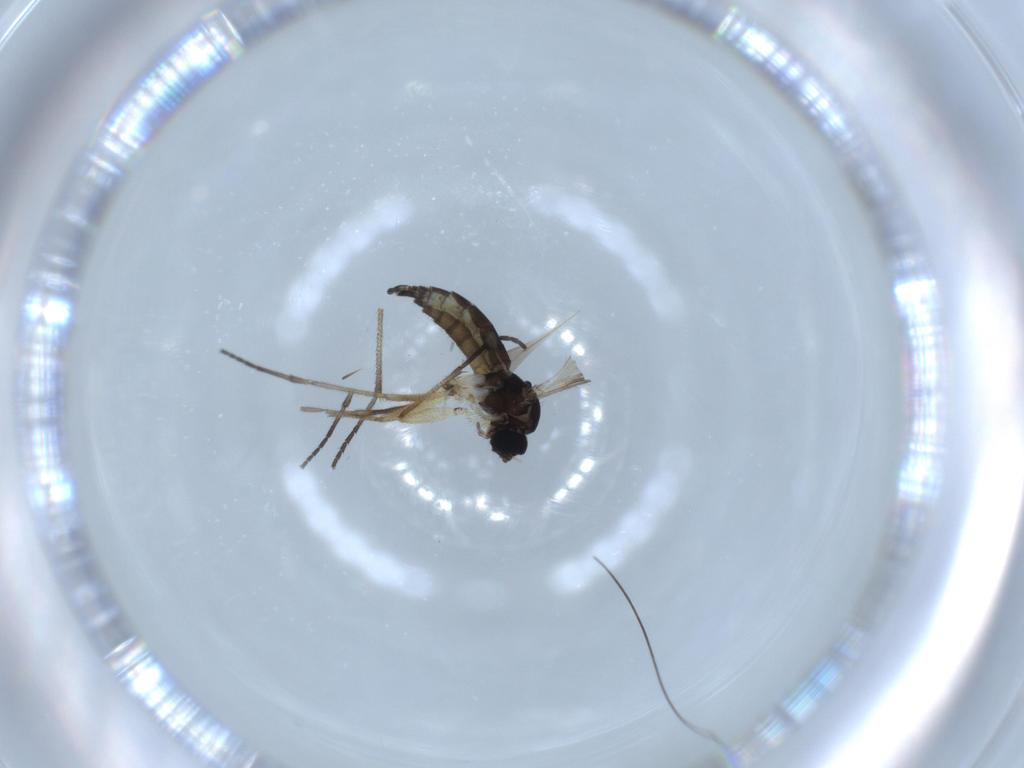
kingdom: Animalia
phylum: Arthropoda
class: Insecta
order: Diptera
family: Sciaridae
